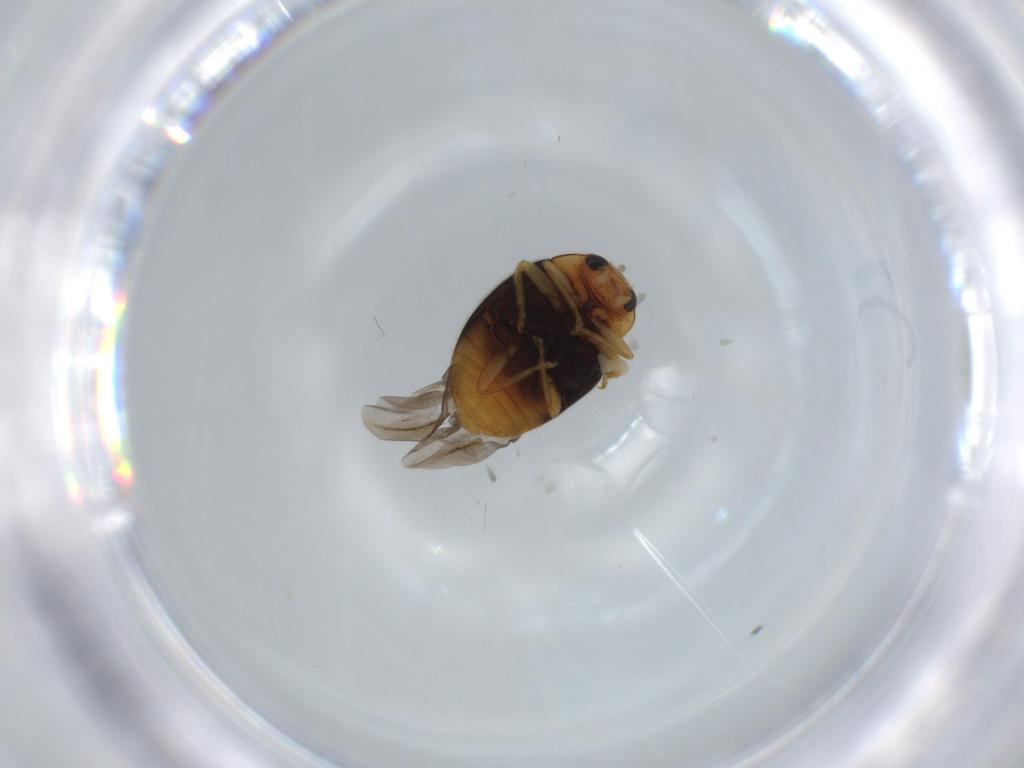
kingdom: Animalia
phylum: Arthropoda
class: Insecta
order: Coleoptera
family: Coccinellidae
